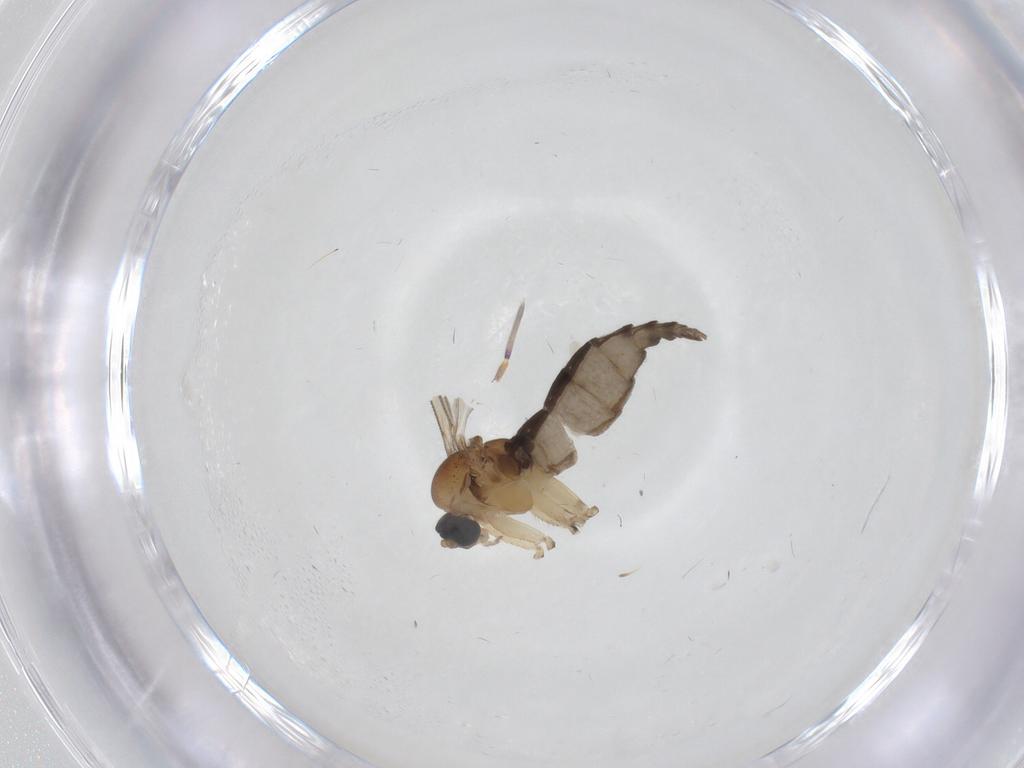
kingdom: Animalia
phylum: Arthropoda
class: Insecta
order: Diptera
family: Sciaridae
